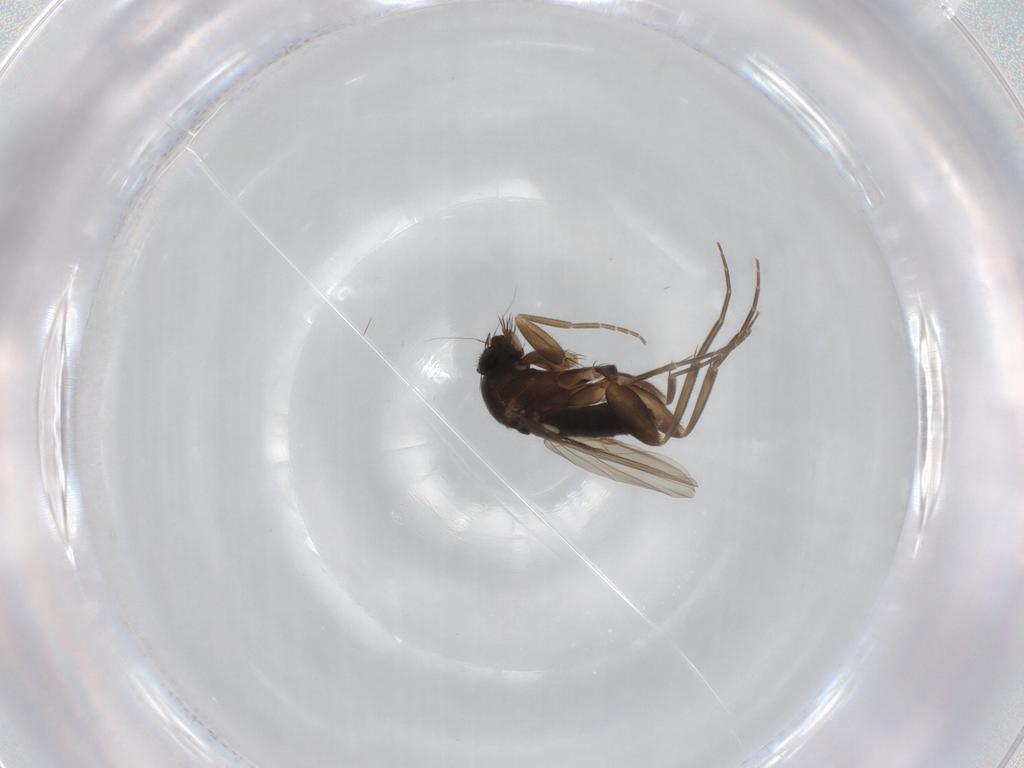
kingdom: Animalia
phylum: Arthropoda
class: Insecta
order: Diptera
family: Phoridae
